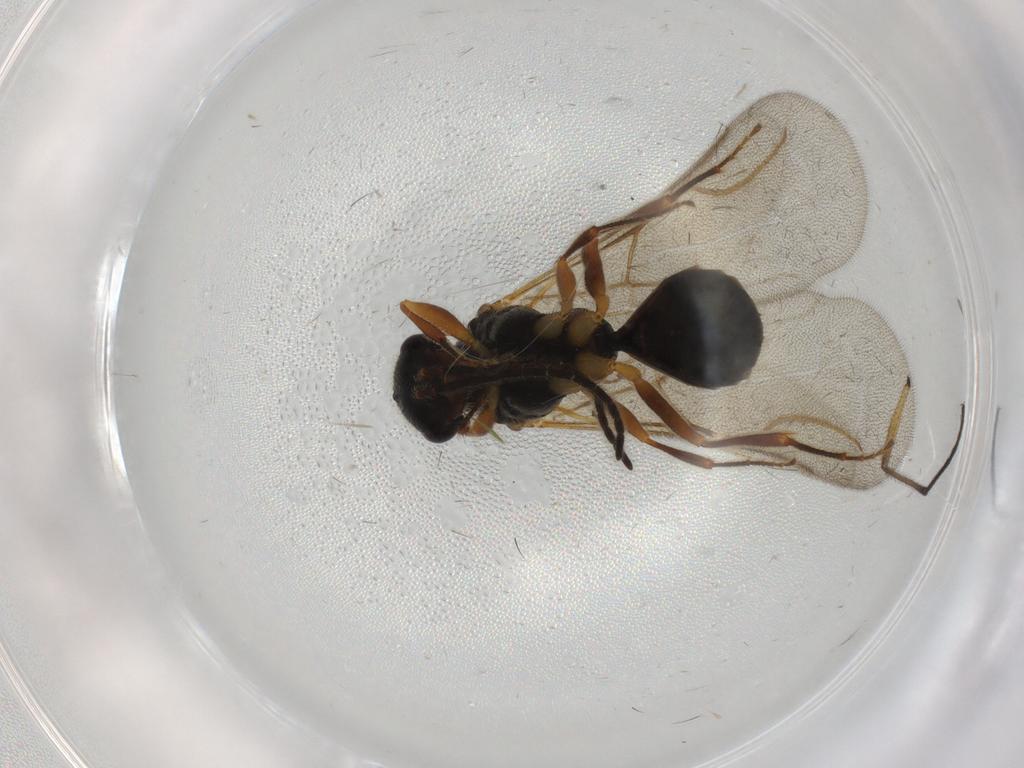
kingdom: Animalia
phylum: Arthropoda
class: Insecta
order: Hymenoptera
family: Bethylidae
